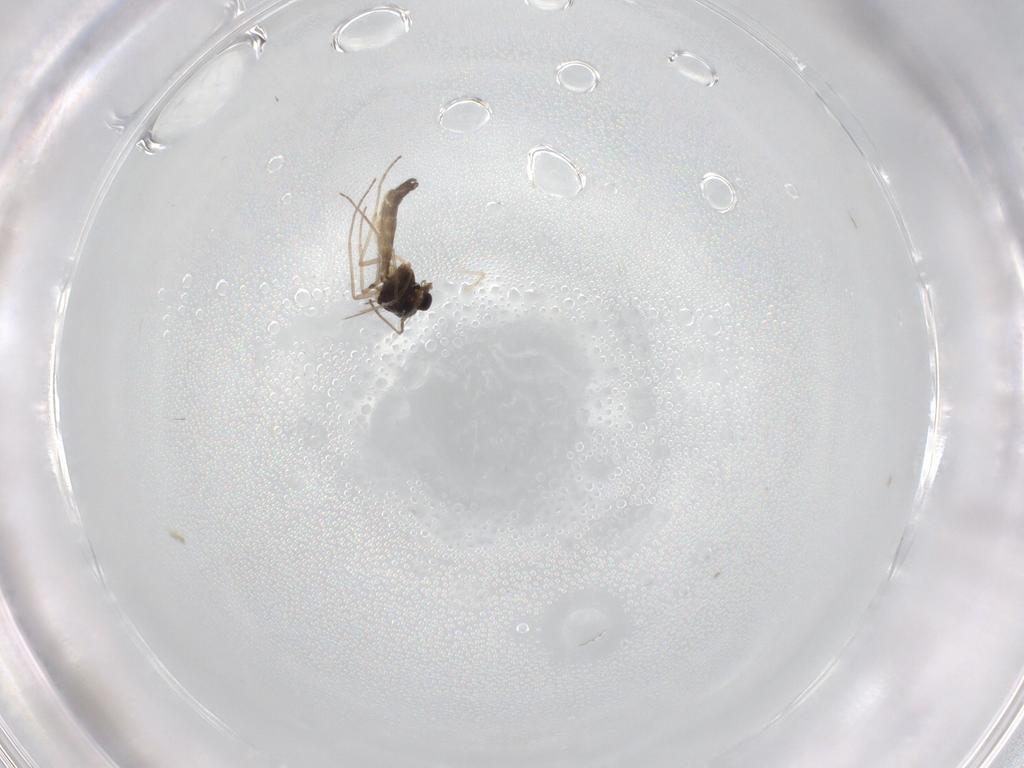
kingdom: Animalia
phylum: Arthropoda
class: Insecta
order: Diptera
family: Chironomidae
